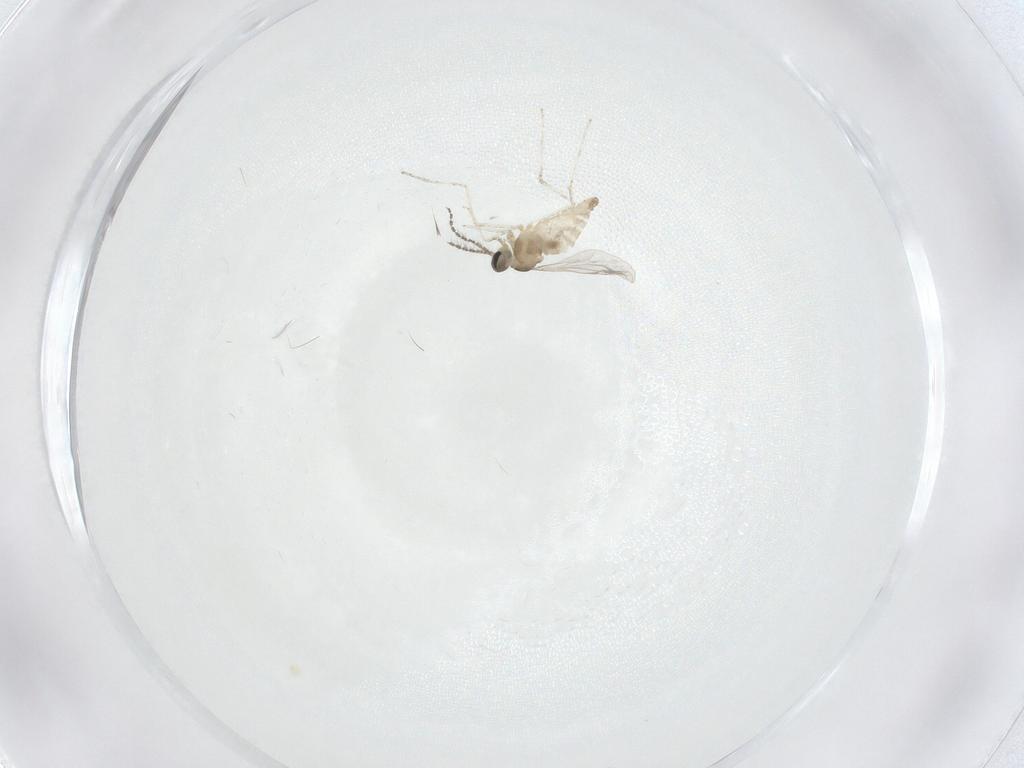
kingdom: Animalia
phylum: Arthropoda
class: Insecta
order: Diptera
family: Cecidomyiidae
